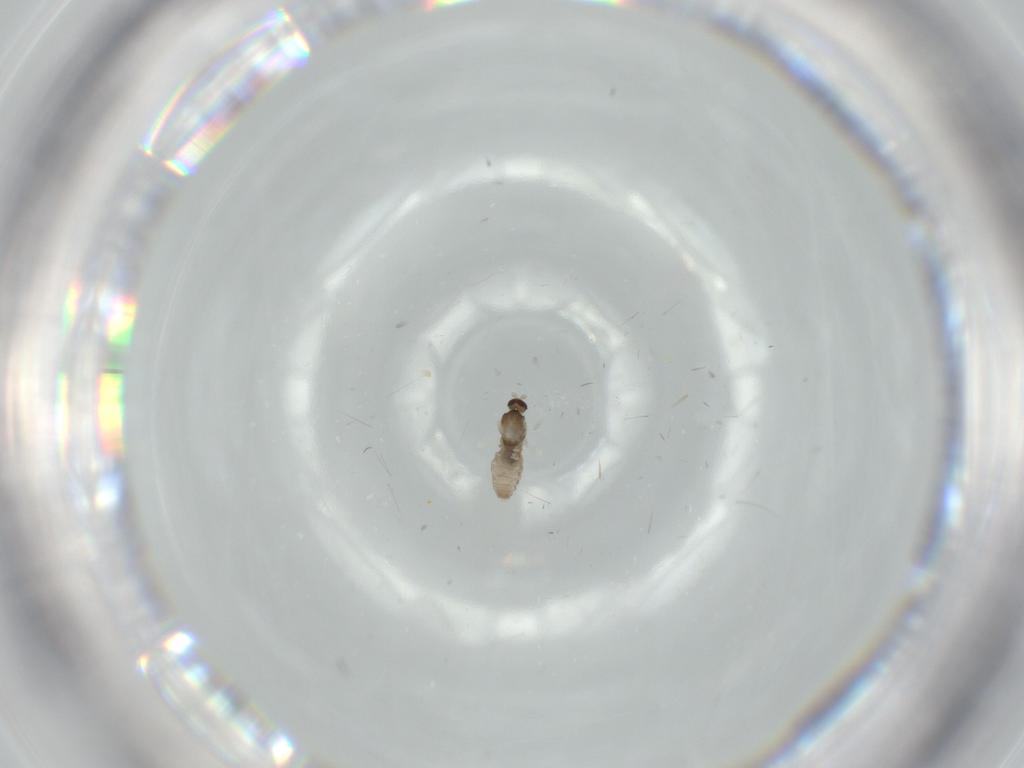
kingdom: Animalia
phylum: Arthropoda
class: Insecta
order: Diptera
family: Cecidomyiidae
